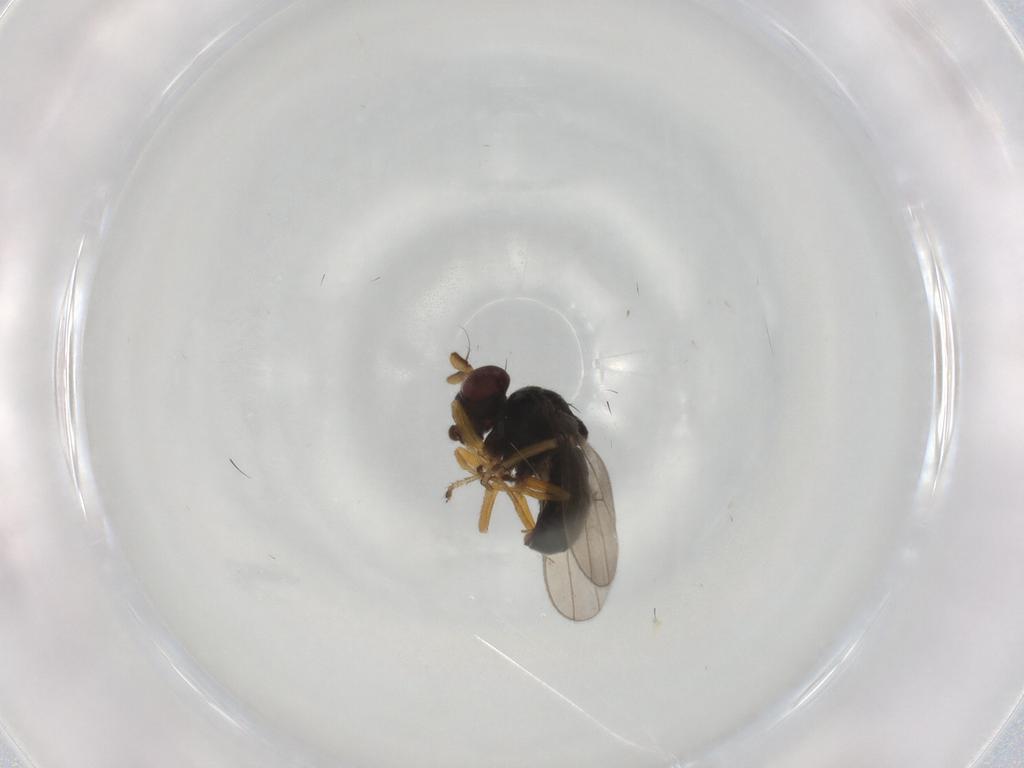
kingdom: Animalia
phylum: Arthropoda
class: Insecta
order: Diptera
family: Ephydridae
